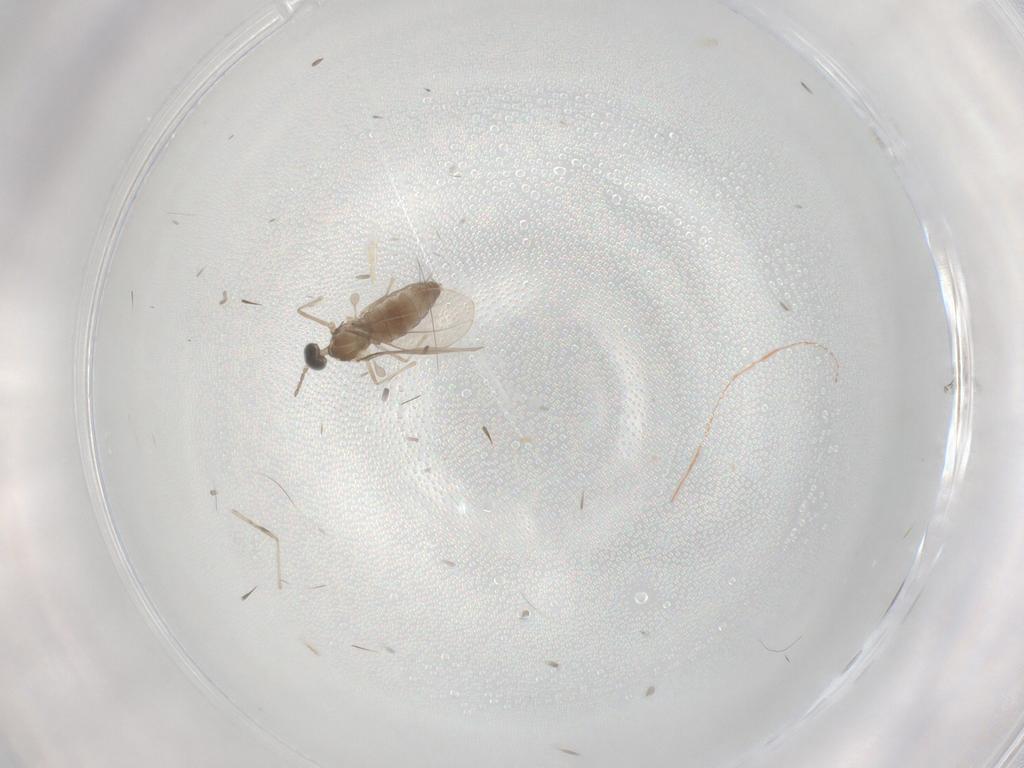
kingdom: Animalia
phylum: Arthropoda
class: Insecta
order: Diptera
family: Cecidomyiidae
